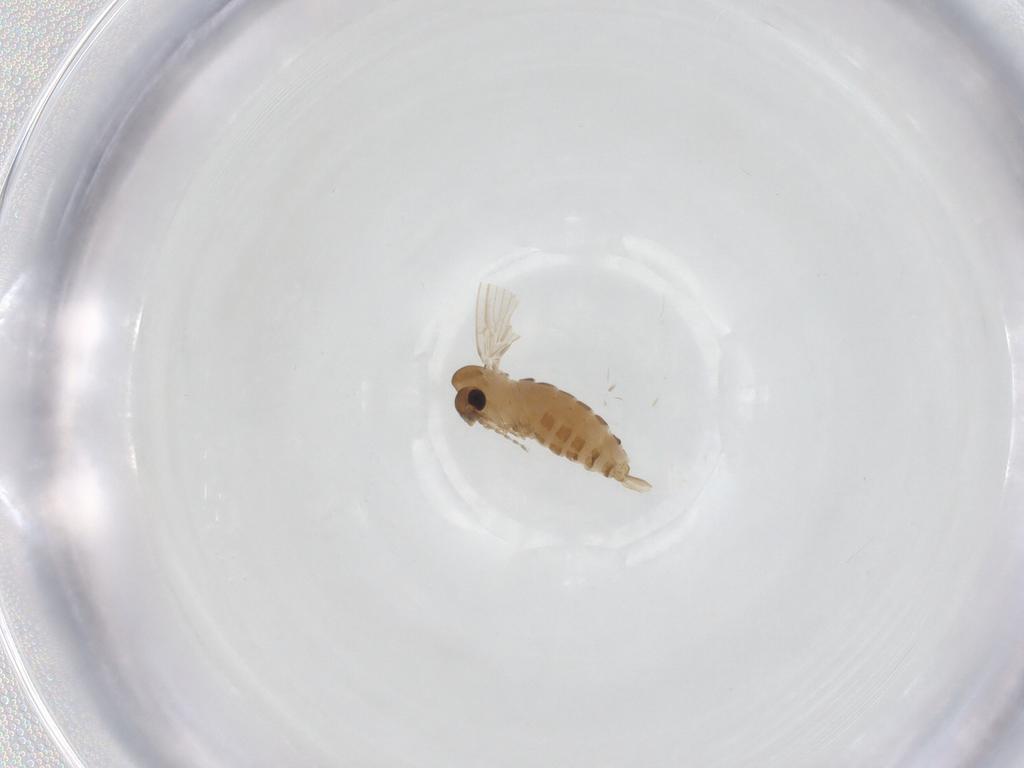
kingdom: Animalia
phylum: Arthropoda
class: Insecta
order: Diptera
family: Psychodidae
